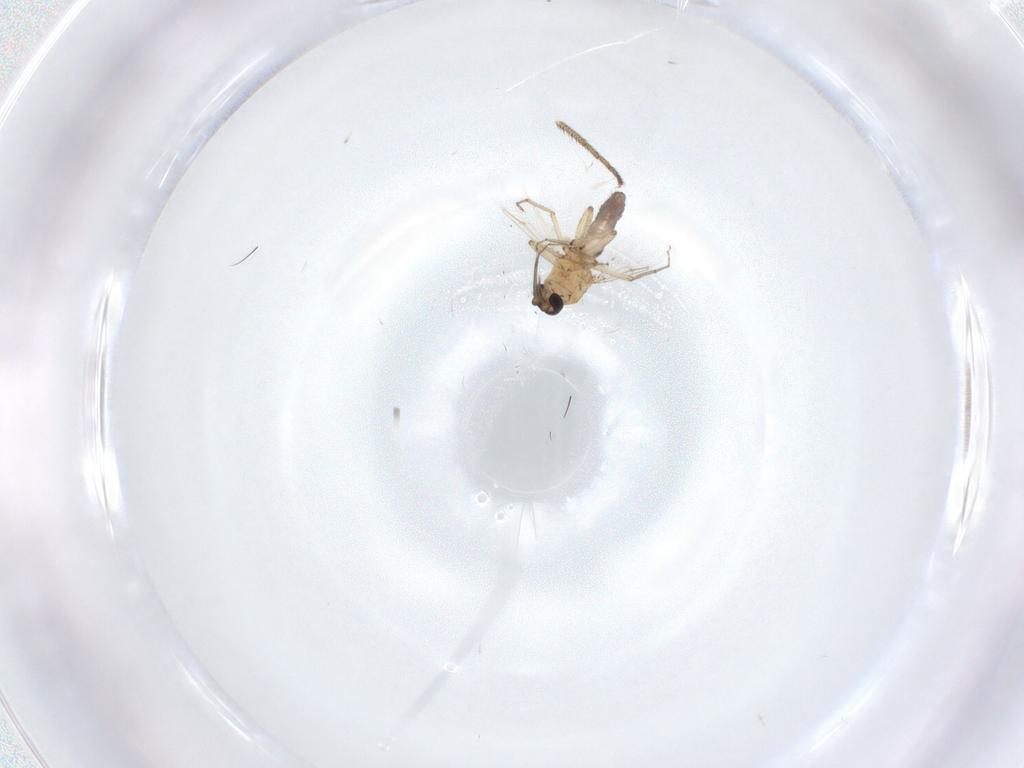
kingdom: Animalia
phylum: Arthropoda
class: Insecta
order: Diptera
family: Ceratopogonidae
